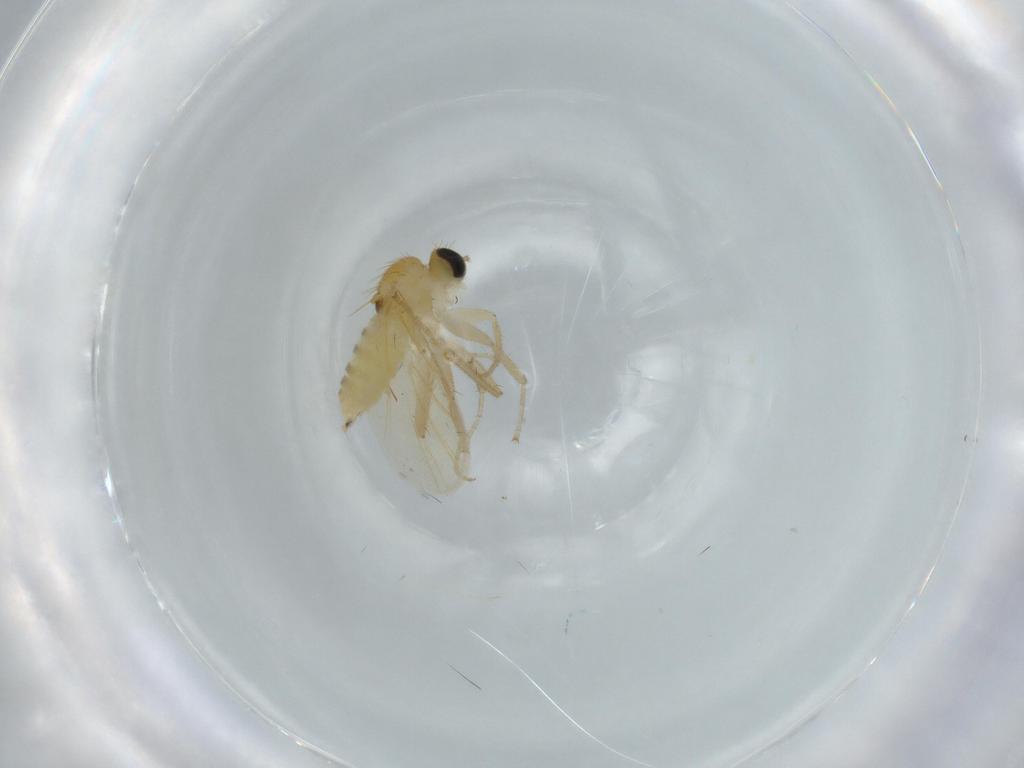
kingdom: Animalia
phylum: Arthropoda
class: Insecta
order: Diptera
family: Hybotidae
